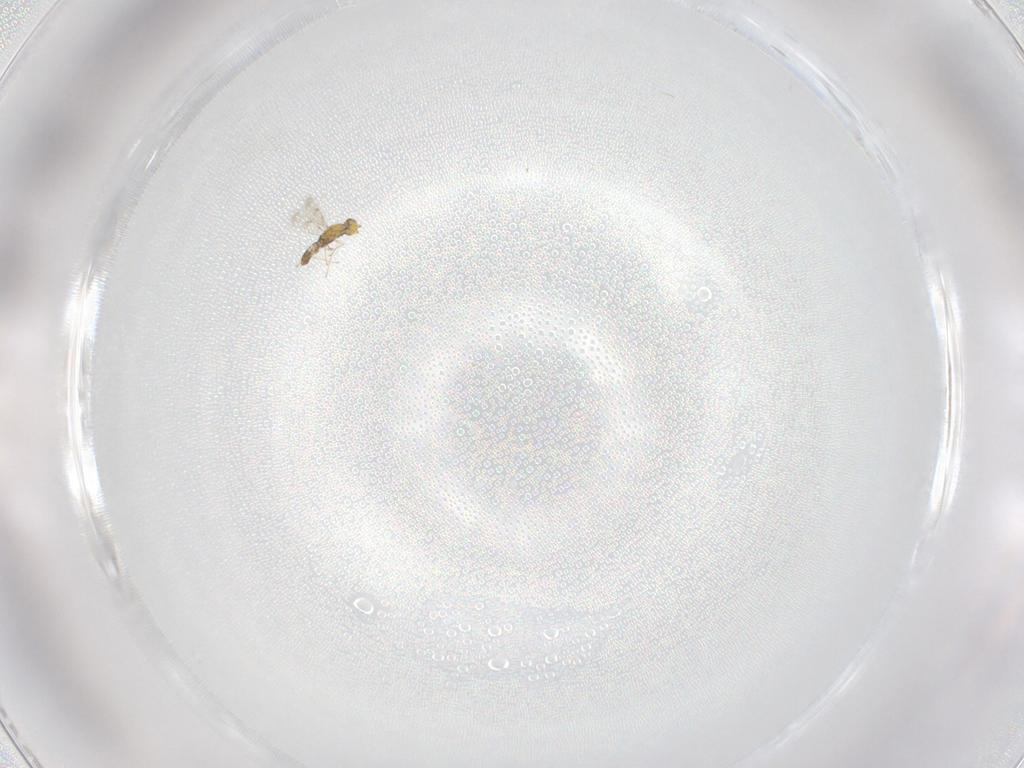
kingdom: Animalia
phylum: Arthropoda
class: Insecta
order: Hymenoptera
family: Eulophidae
